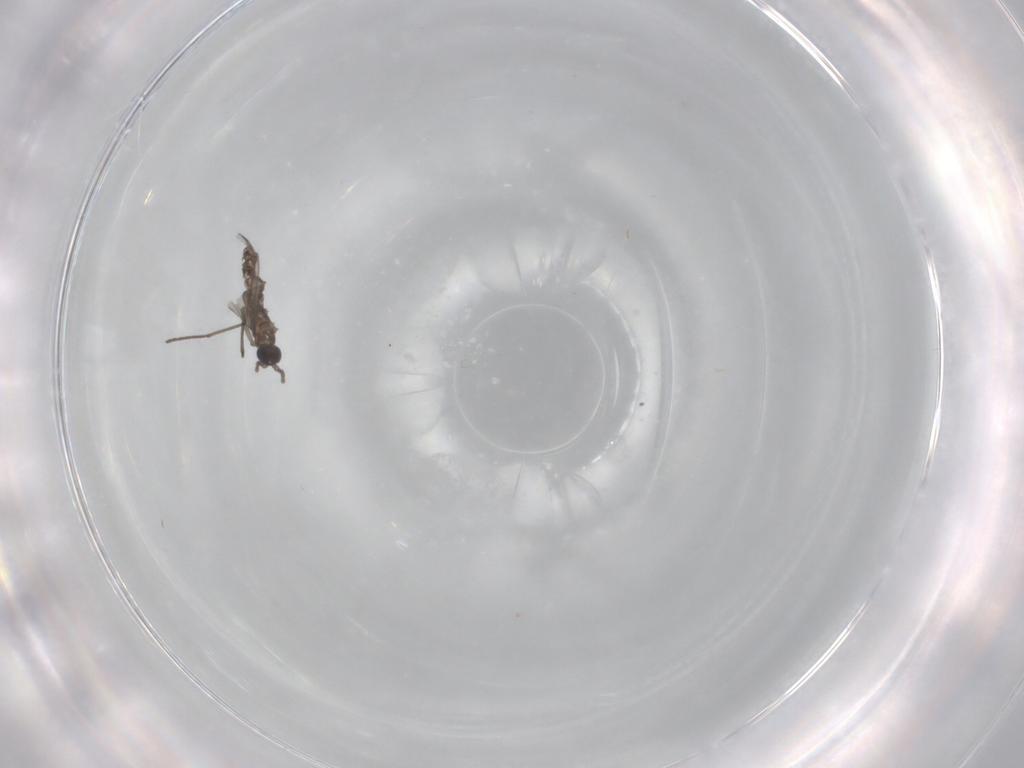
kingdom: Animalia
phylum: Arthropoda
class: Insecta
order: Diptera
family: Sciaridae
